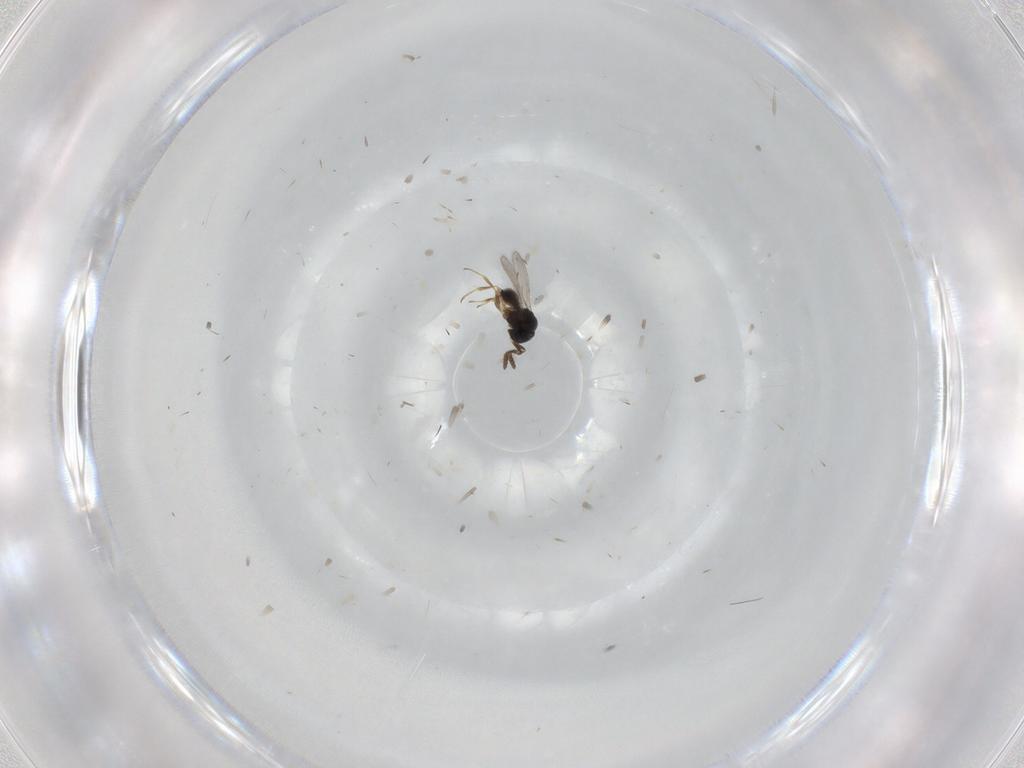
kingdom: Animalia
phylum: Arthropoda
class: Insecta
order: Hymenoptera
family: Scelionidae
